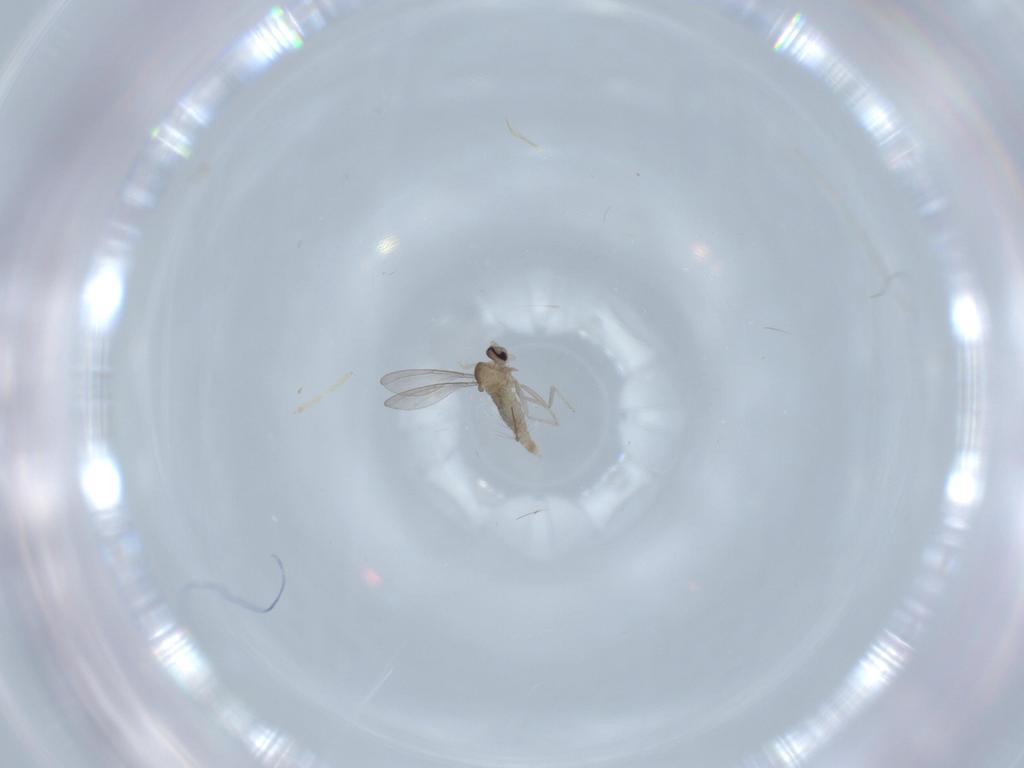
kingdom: Animalia
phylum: Arthropoda
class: Insecta
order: Diptera
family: Cecidomyiidae
